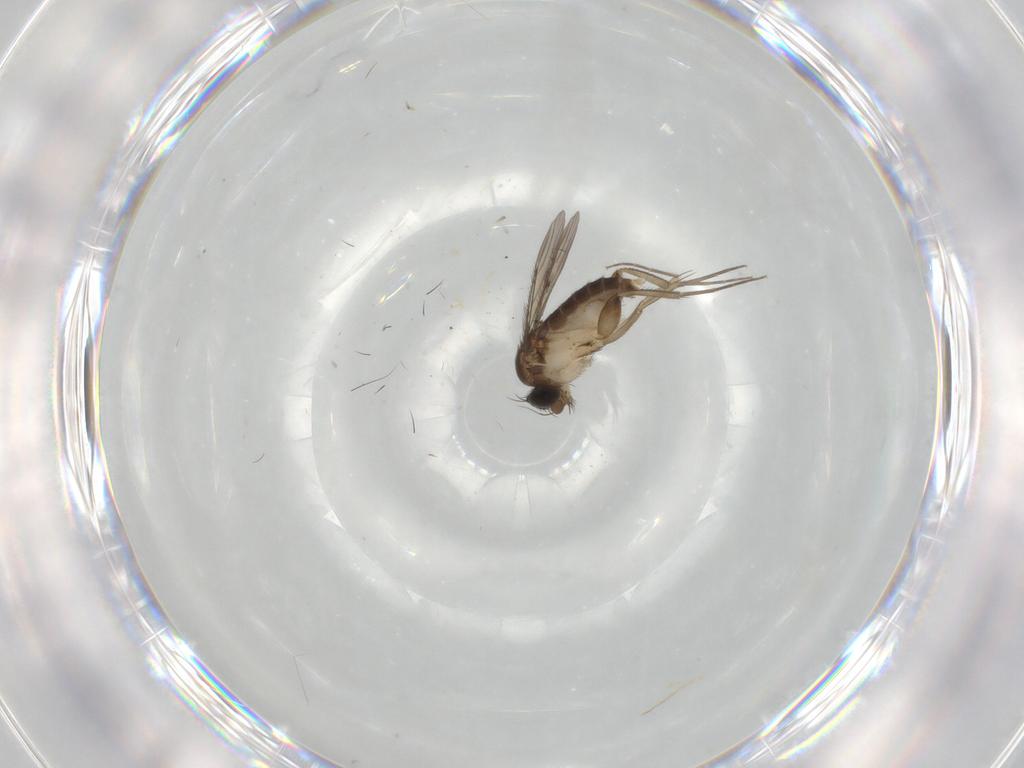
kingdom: Animalia
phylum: Arthropoda
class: Insecta
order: Diptera
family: Phoridae
